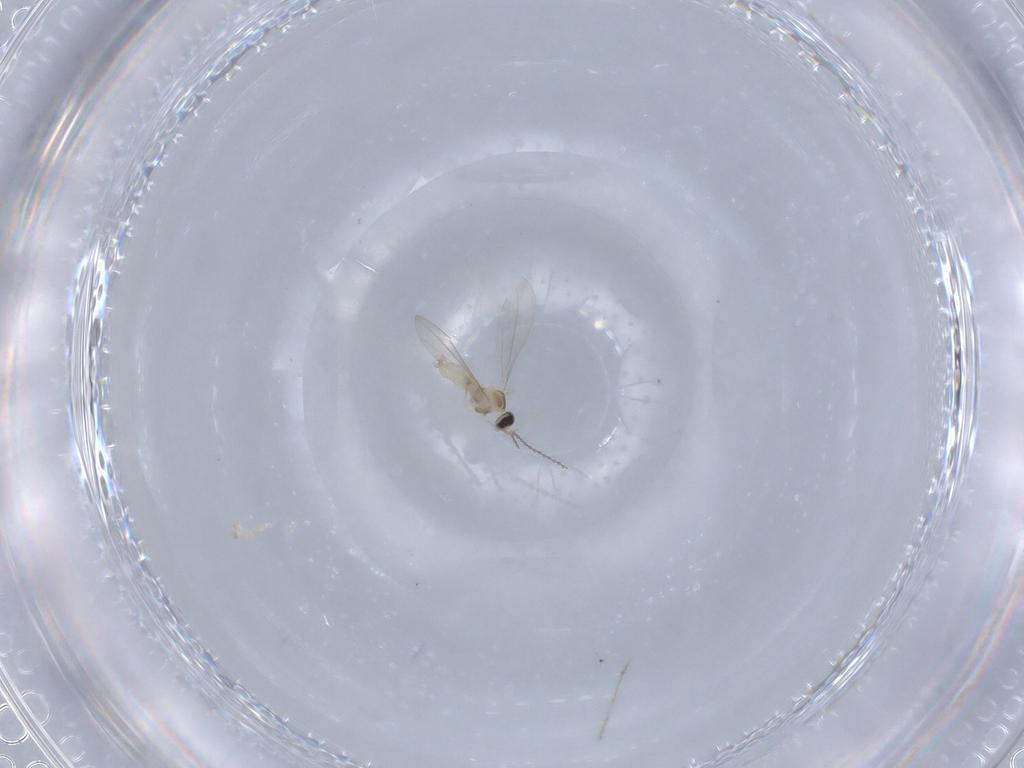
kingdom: Animalia
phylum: Arthropoda
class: Insecta
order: Diptera
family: Cecidomyiidae
